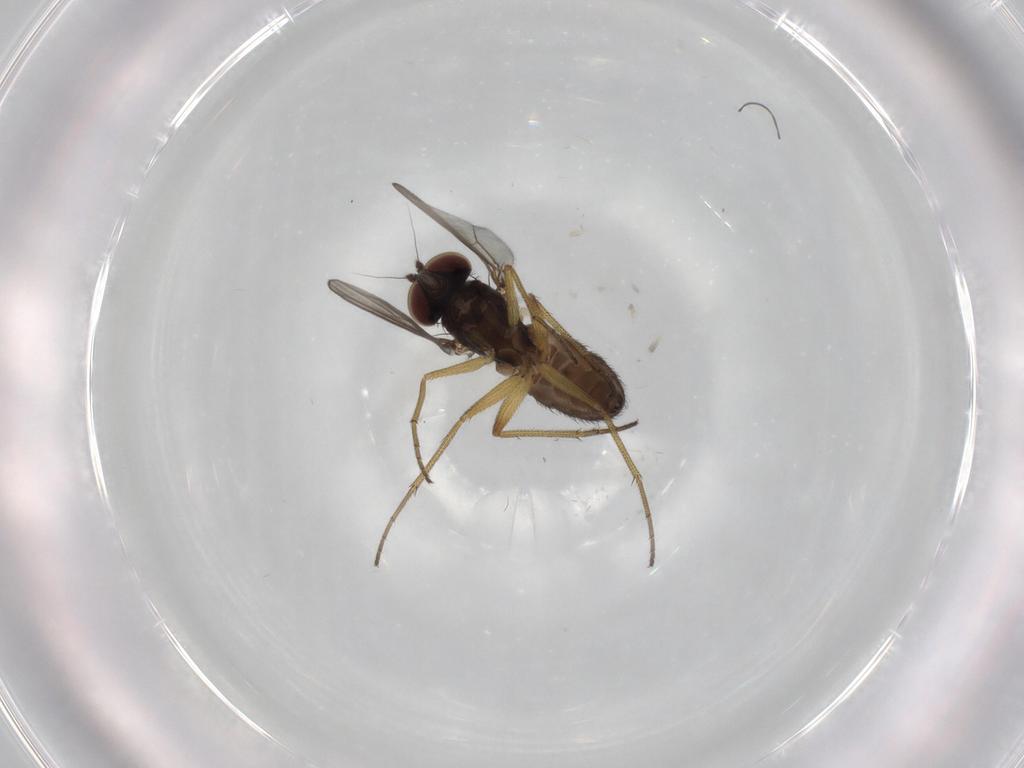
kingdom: Animalia
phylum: Arthropoda
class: Insecta
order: Diptera
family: Dolichopodidae
